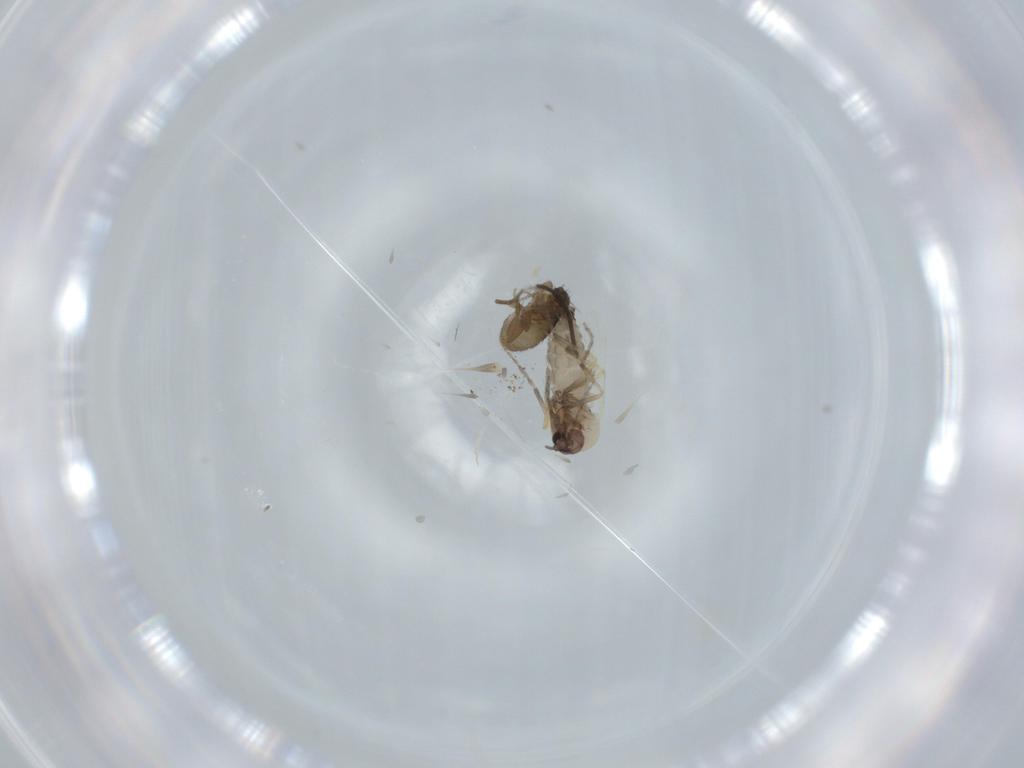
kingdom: Animalia
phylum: Arthropoda
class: Insecta
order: Diptera
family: Ceratopogonidae
